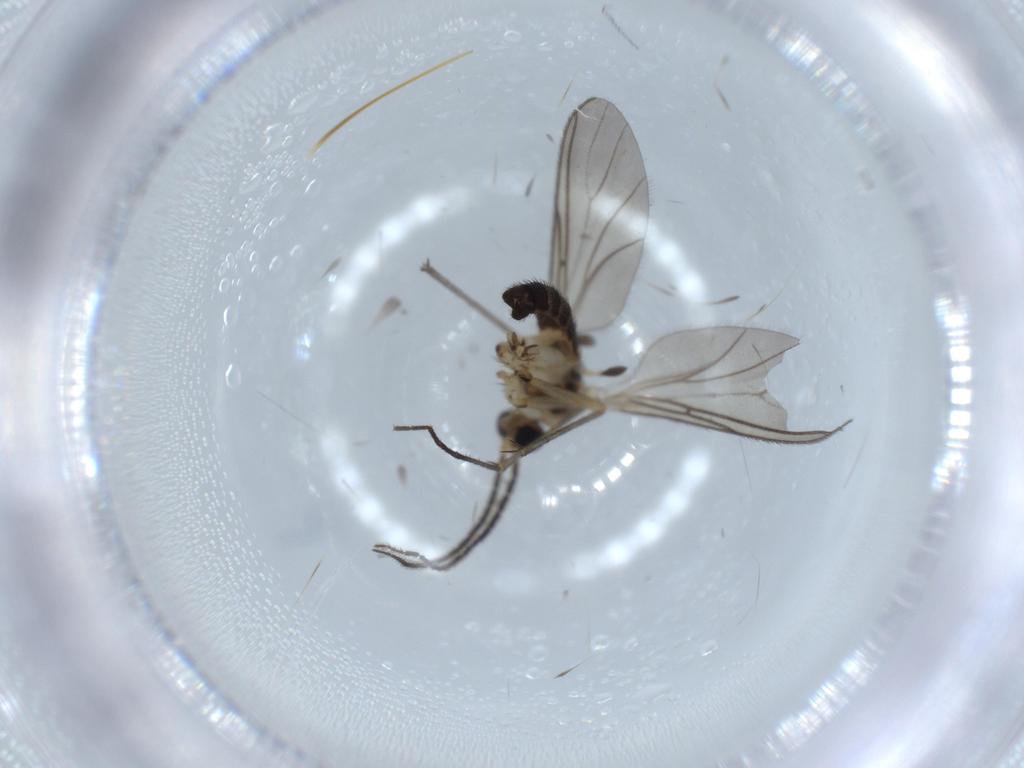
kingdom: Animalia
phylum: Arthropoda
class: Insecta
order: Diptera
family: Sciaridae
